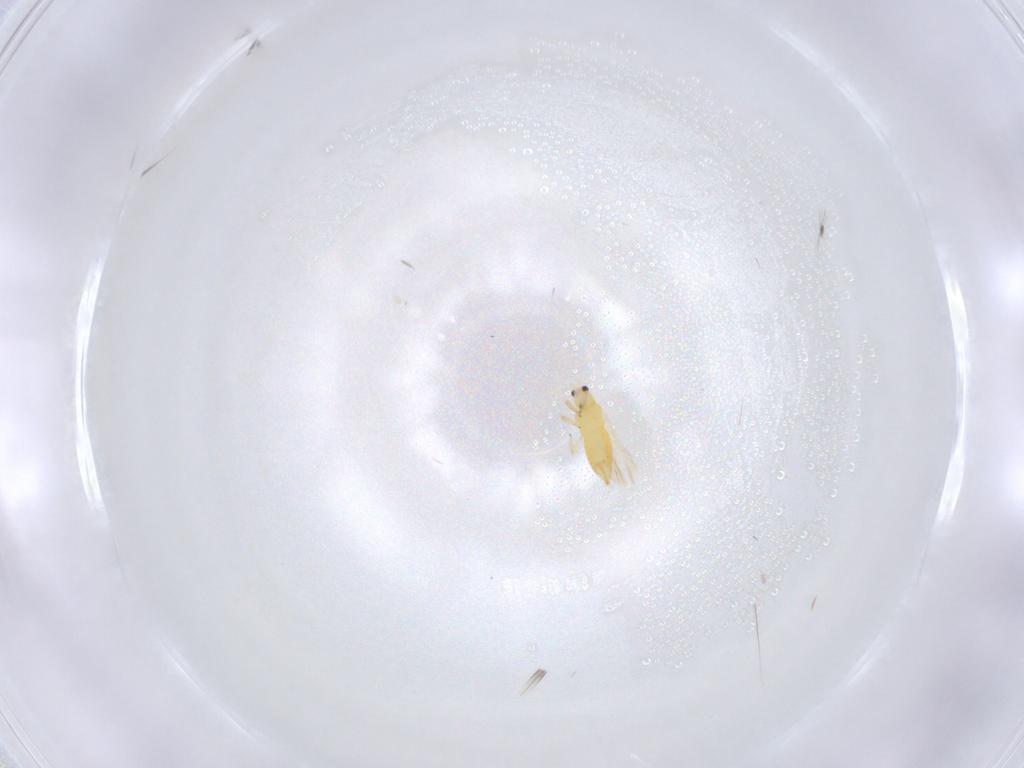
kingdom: Animalia
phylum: Arthropoda
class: Insecta
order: Thysanoptera
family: Thripidae
